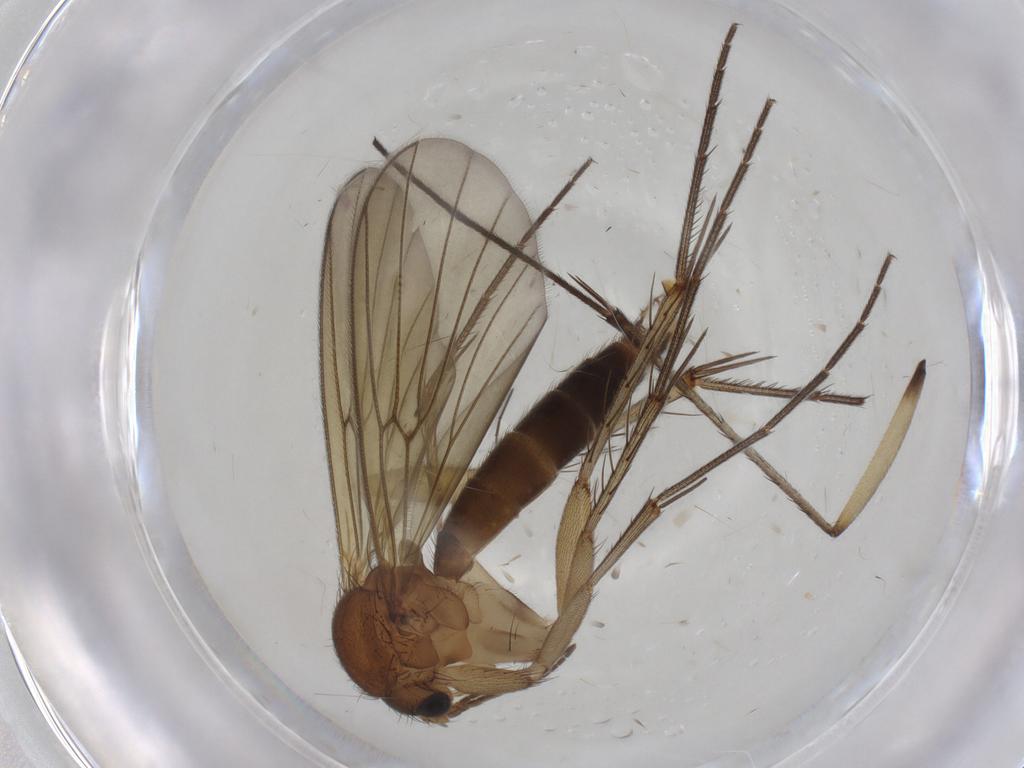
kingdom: Animalia
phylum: Arthropoda
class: Insecta
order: Diptera
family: Mycetophilidae
